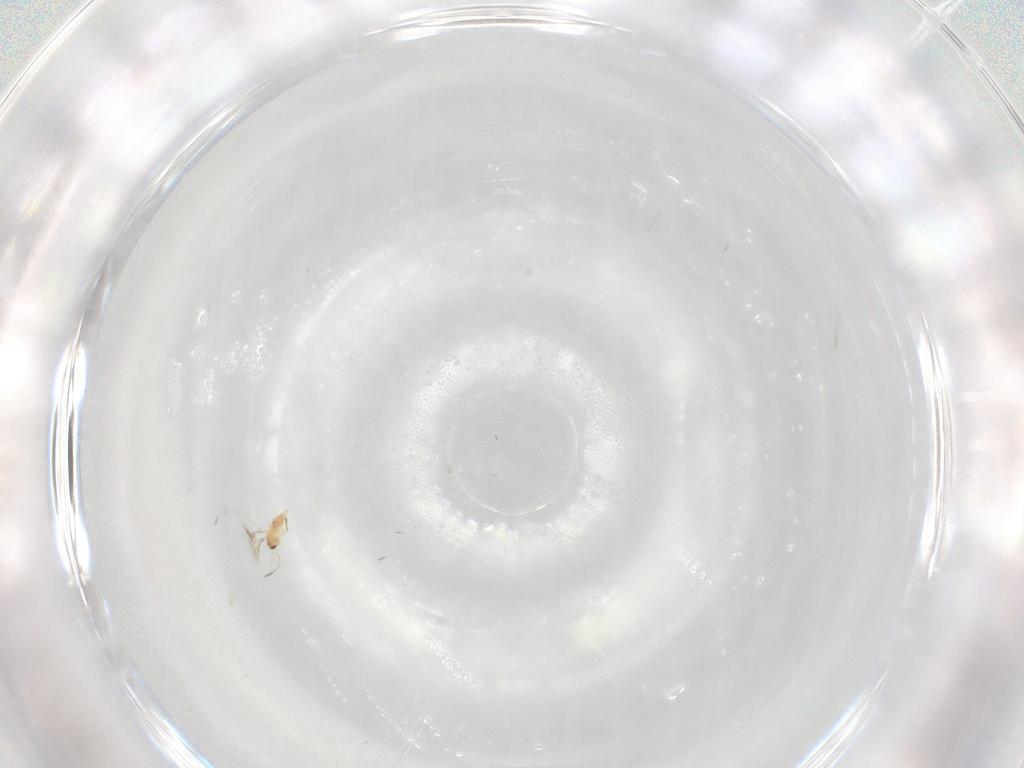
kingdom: Animalia
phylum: Arthropoda
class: Insecta
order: Hymenoptera
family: Mymaridae
